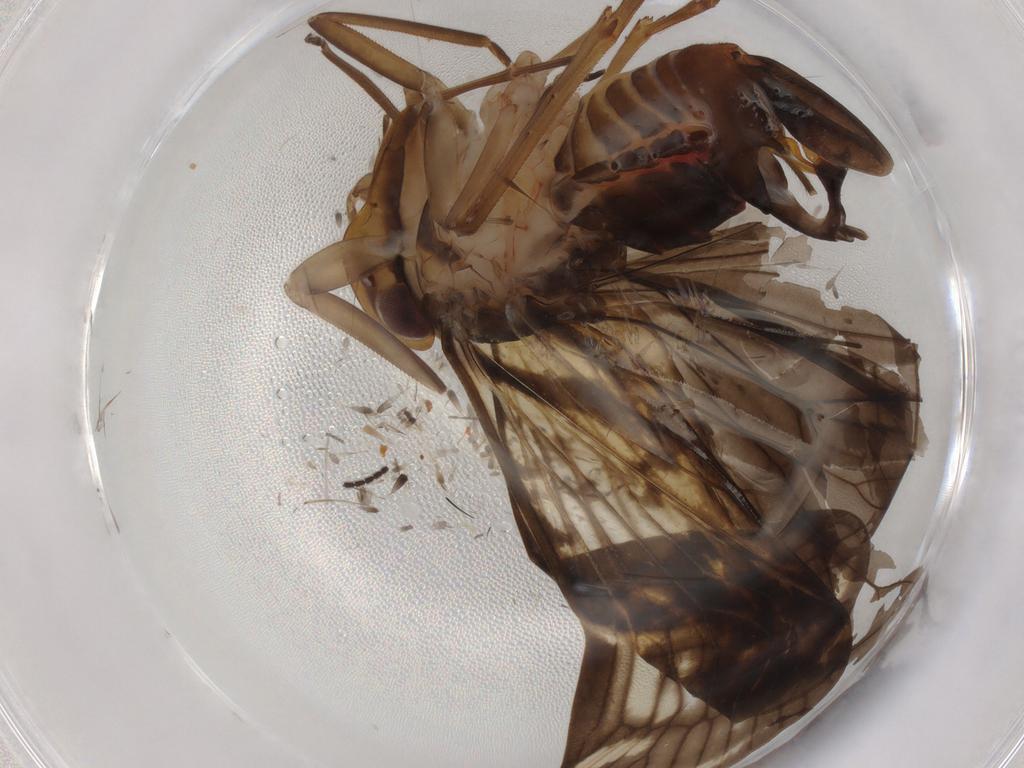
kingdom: Animalia
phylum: Arthropoda
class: Insecta
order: Hemiptera
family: Cixiidae
